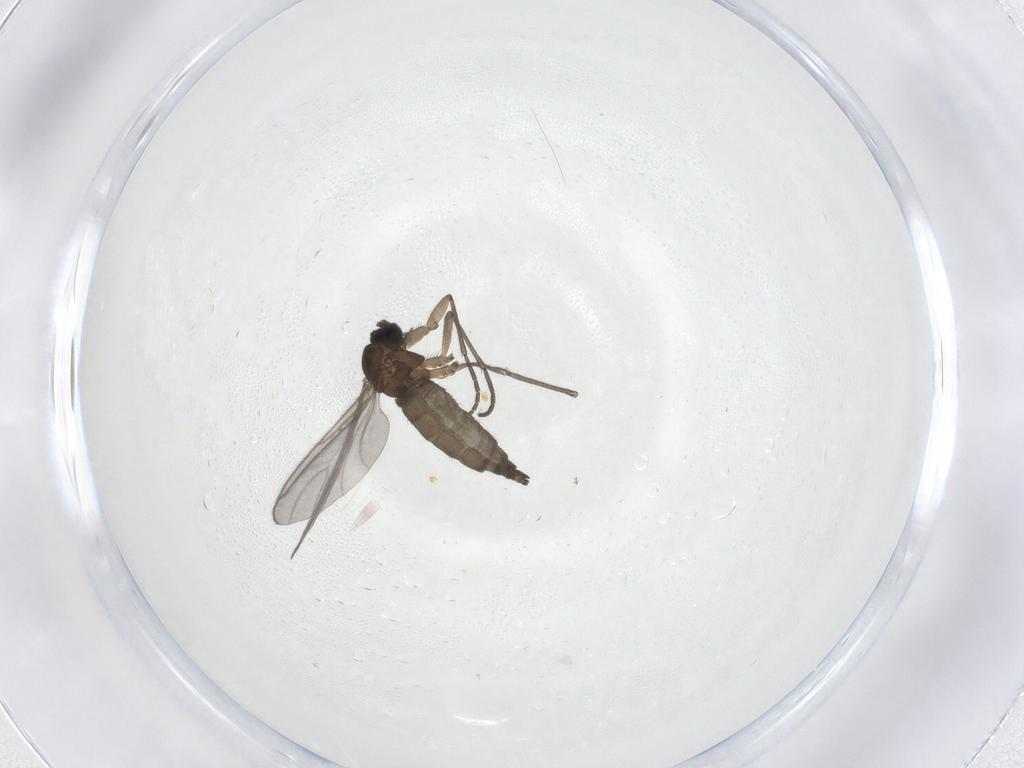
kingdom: Animalia
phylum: Arthropoda
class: Insecta
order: Diptera
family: Sciaridae
